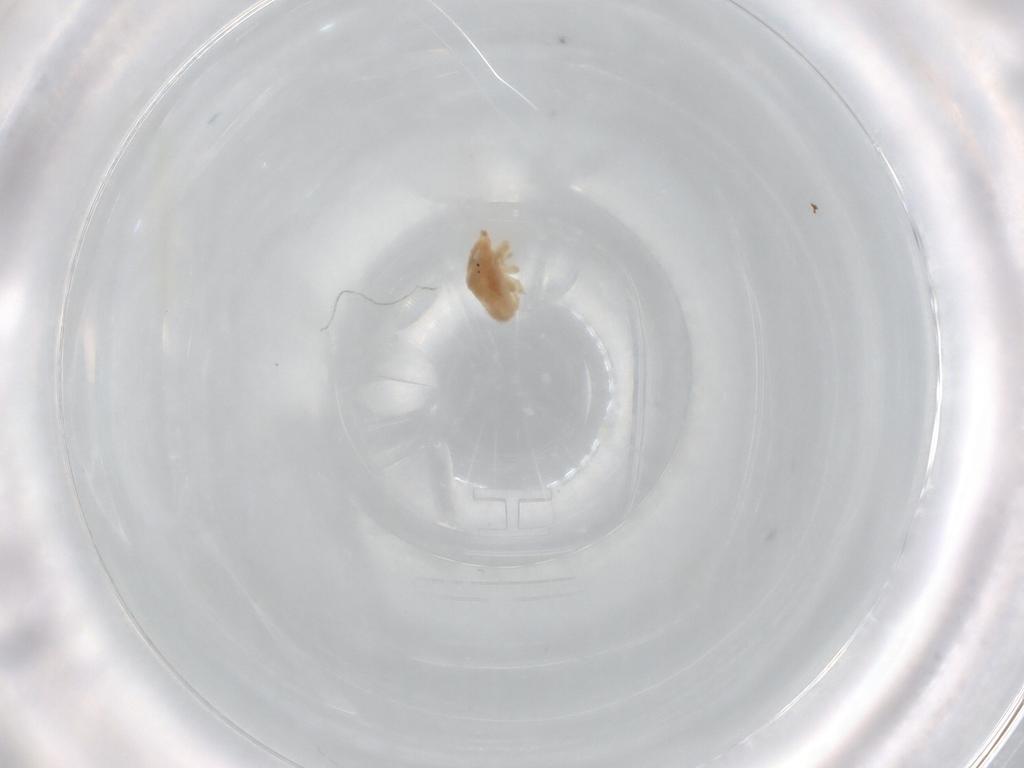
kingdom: Animalia
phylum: Arthropoda
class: Arachnida
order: Trombidiformes
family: Bdellidae
